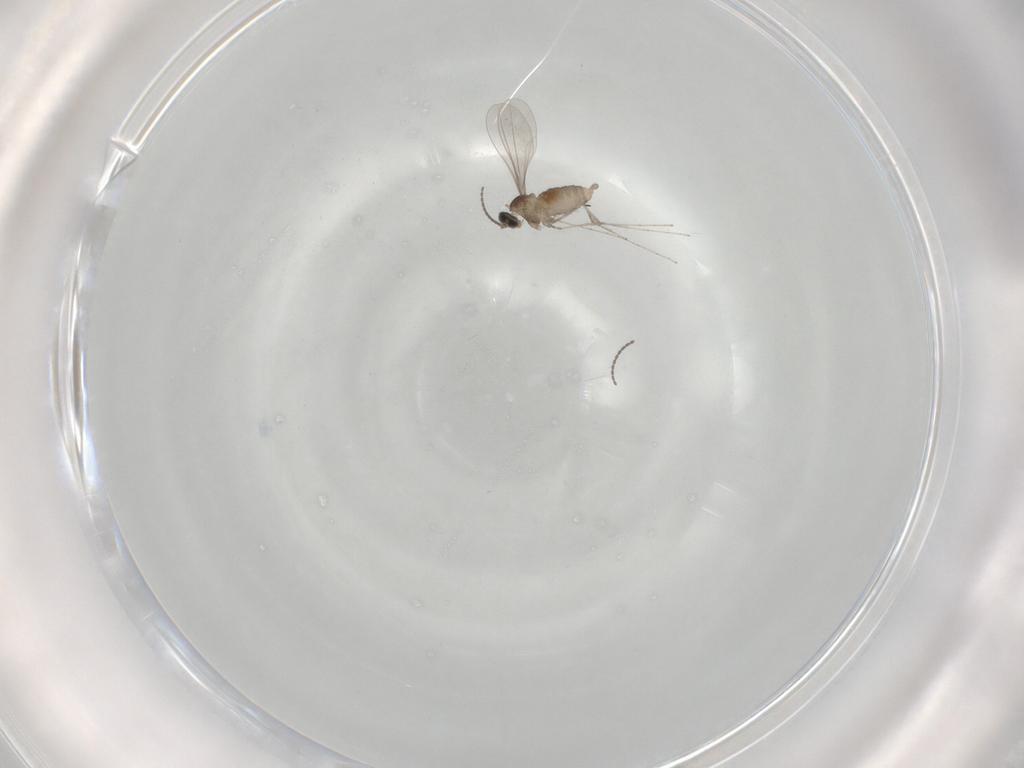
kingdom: Animalia
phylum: Arthropoda
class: Insecta
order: Diptera
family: Cecidomyiidae
